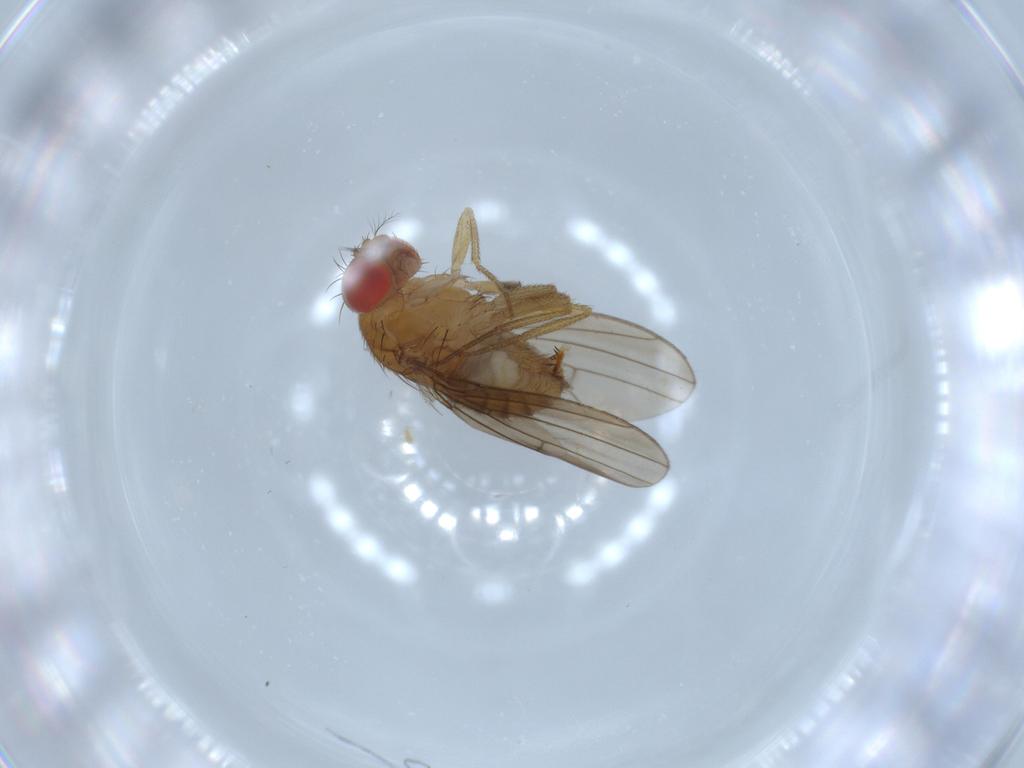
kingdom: Animalia
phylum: Arthropoda
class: Insecta
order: Diptera
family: Drosophilidae
